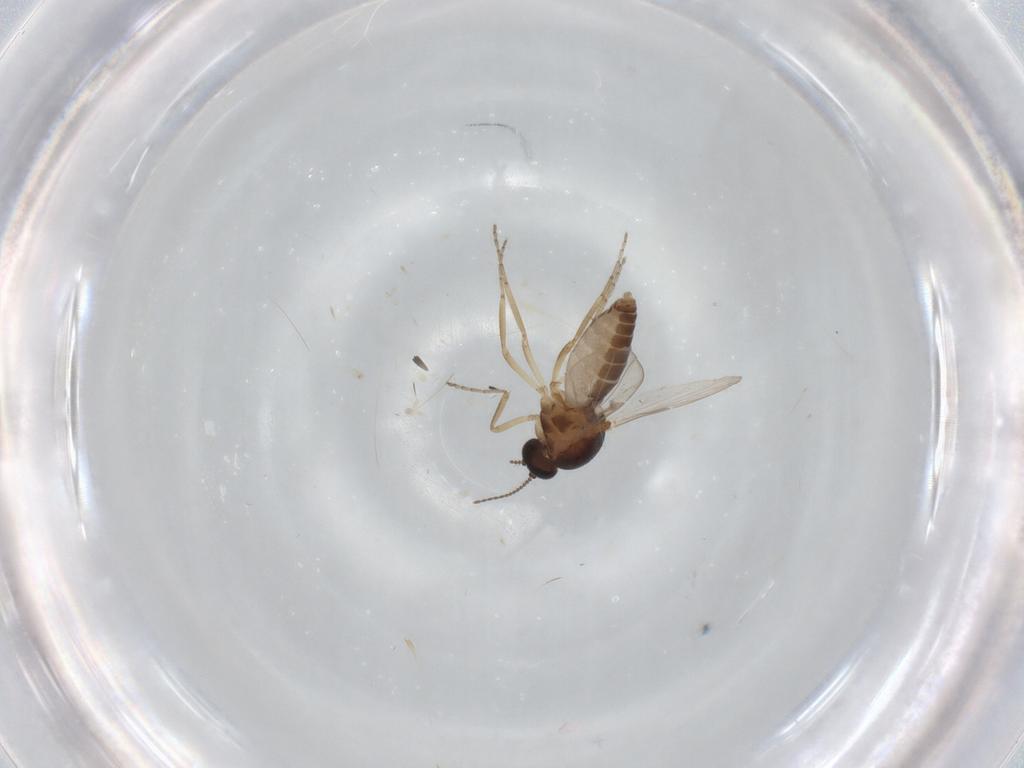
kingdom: Animalia
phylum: Arthropoda
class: Insecta
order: Diptera
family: Ceratopogonidae
